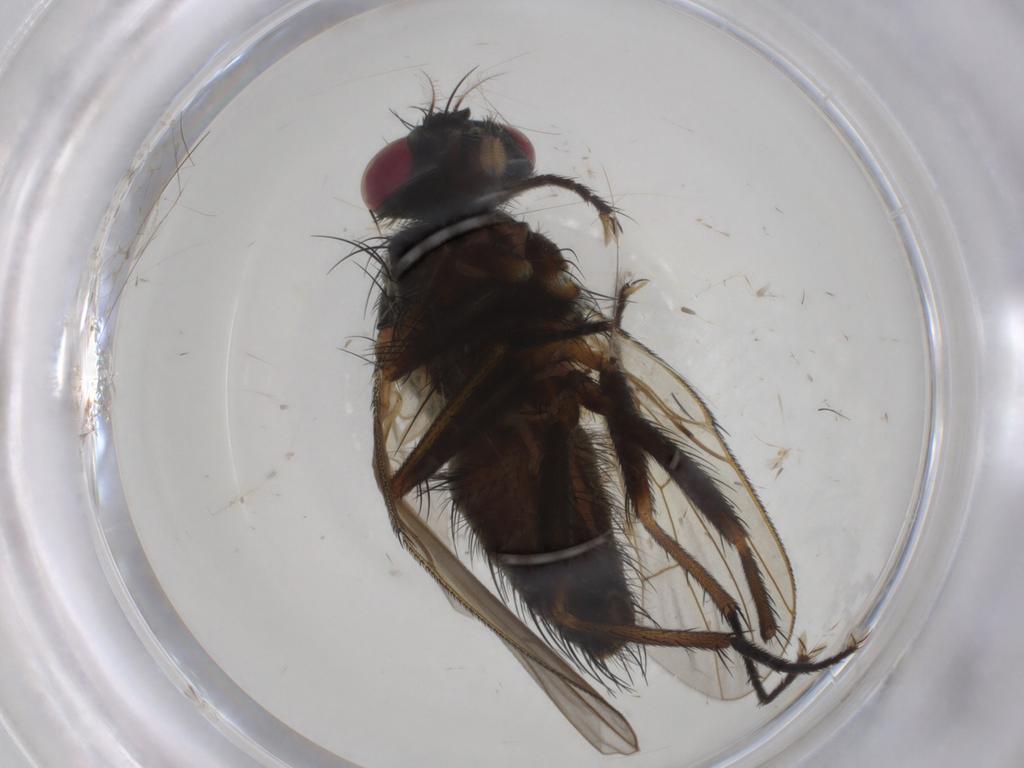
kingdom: Animalia
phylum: Arthropoda
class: Insecta
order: Diptera
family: Muscidae
